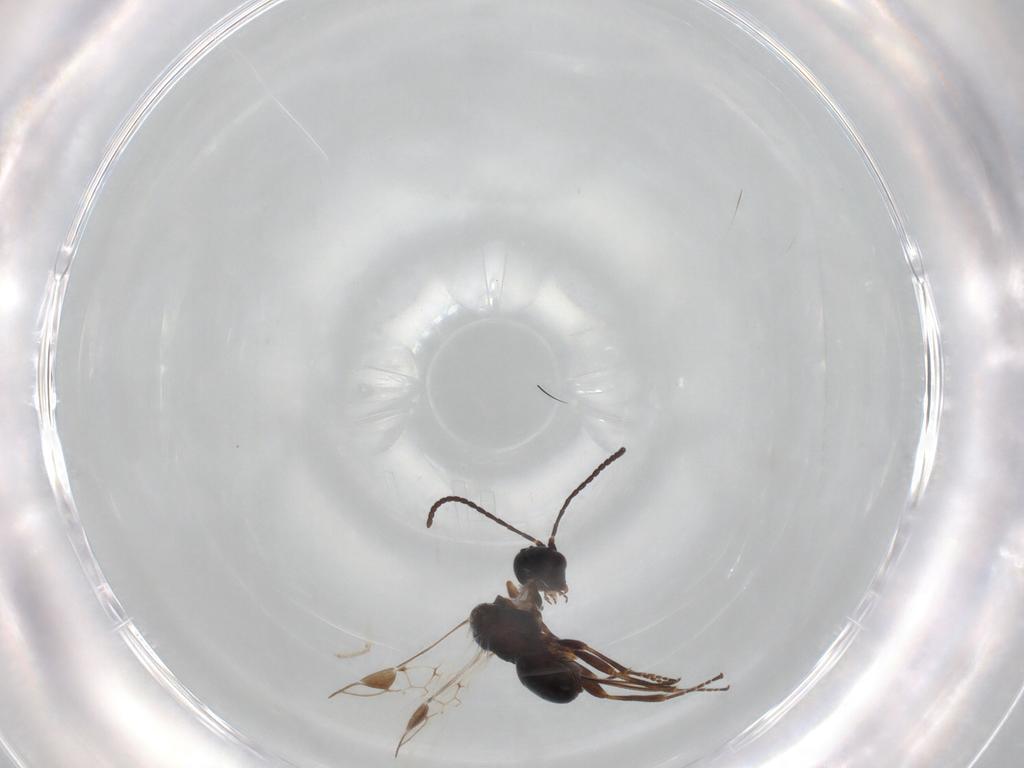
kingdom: Animalia
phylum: Arthropoda
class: Insecta
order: Hymenoptera
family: Braconidae
